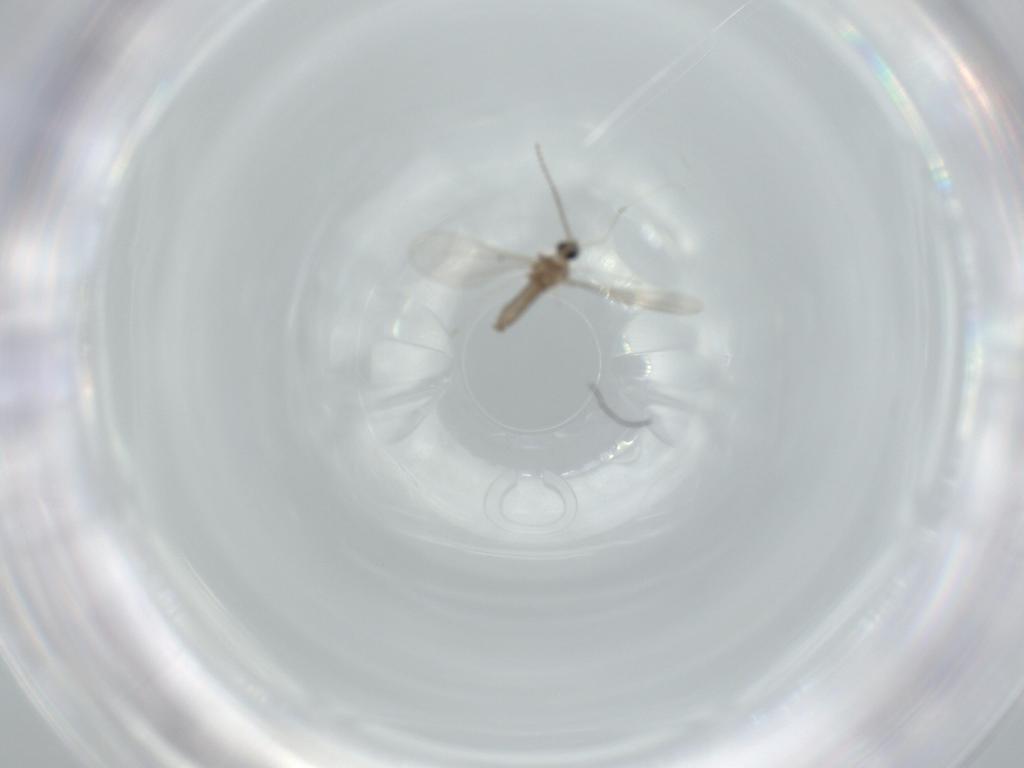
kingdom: Animalia
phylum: Arthropoda
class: Insecta
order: Diptera
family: Cecidomyiidae
